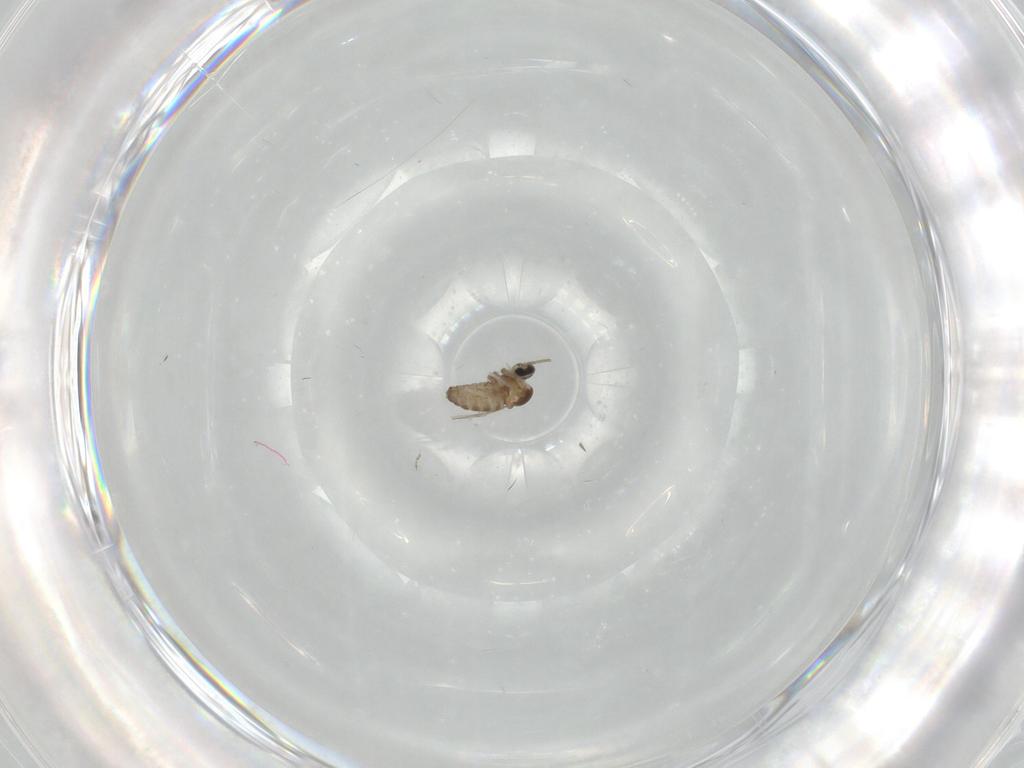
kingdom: Animalia
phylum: Arthropoda
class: Insecta
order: Diptera
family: Cecidomyiidae
